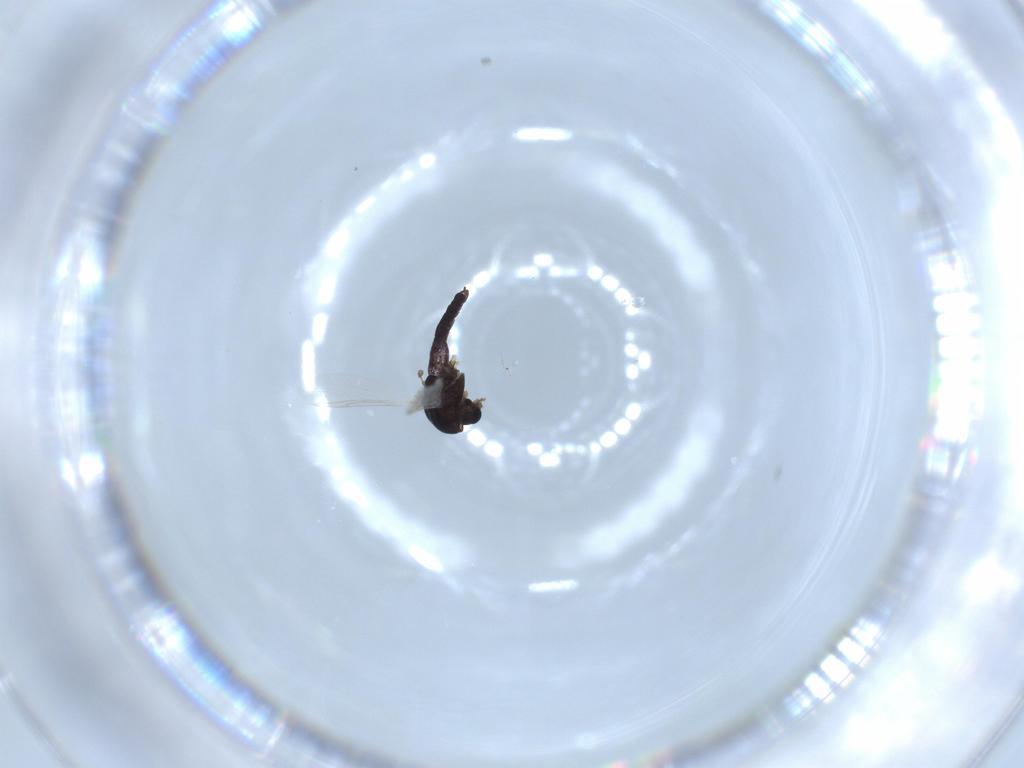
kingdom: Animalia
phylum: Arthropoda
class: Insecta
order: Diptera
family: Chironomidae
